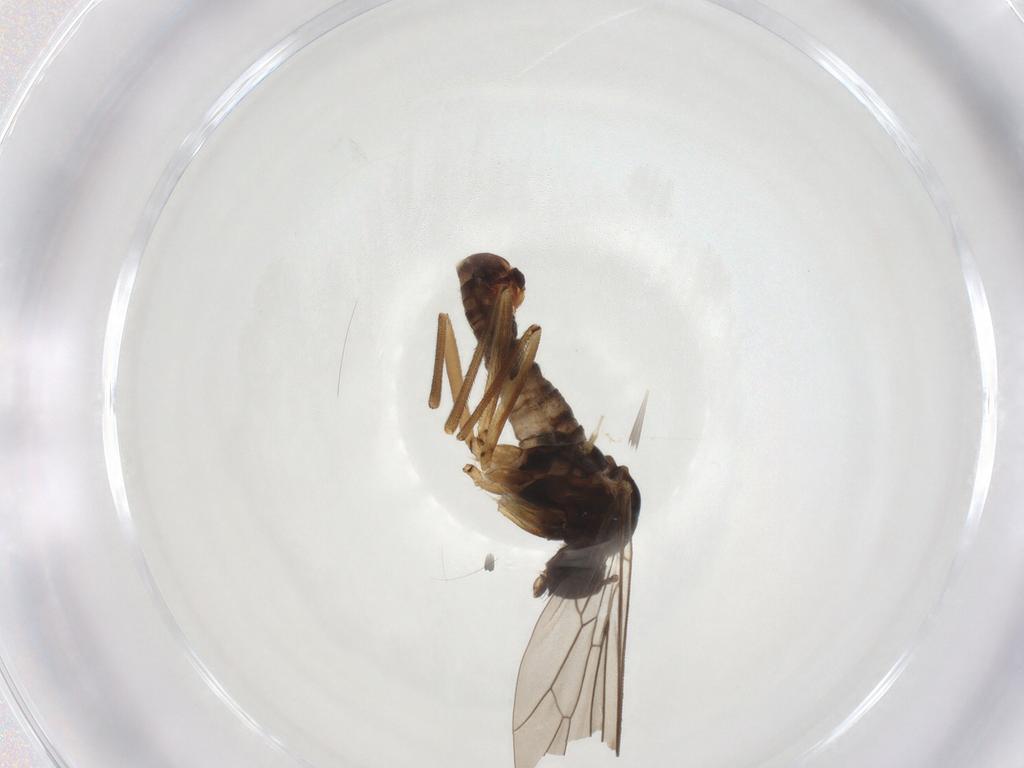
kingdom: Animalia
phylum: Arthropoda
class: Insecta
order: Diptera
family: Empididae
